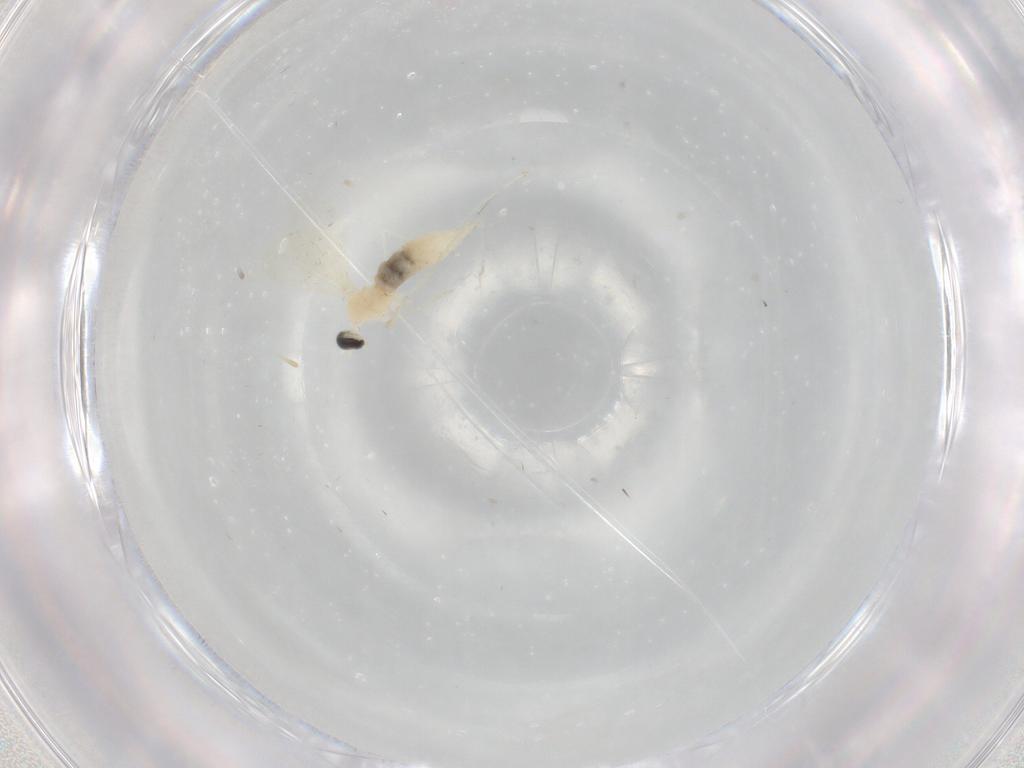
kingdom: Animalia
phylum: Arthropoda
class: Insecta
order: Diptera
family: Cecidomyiidae
